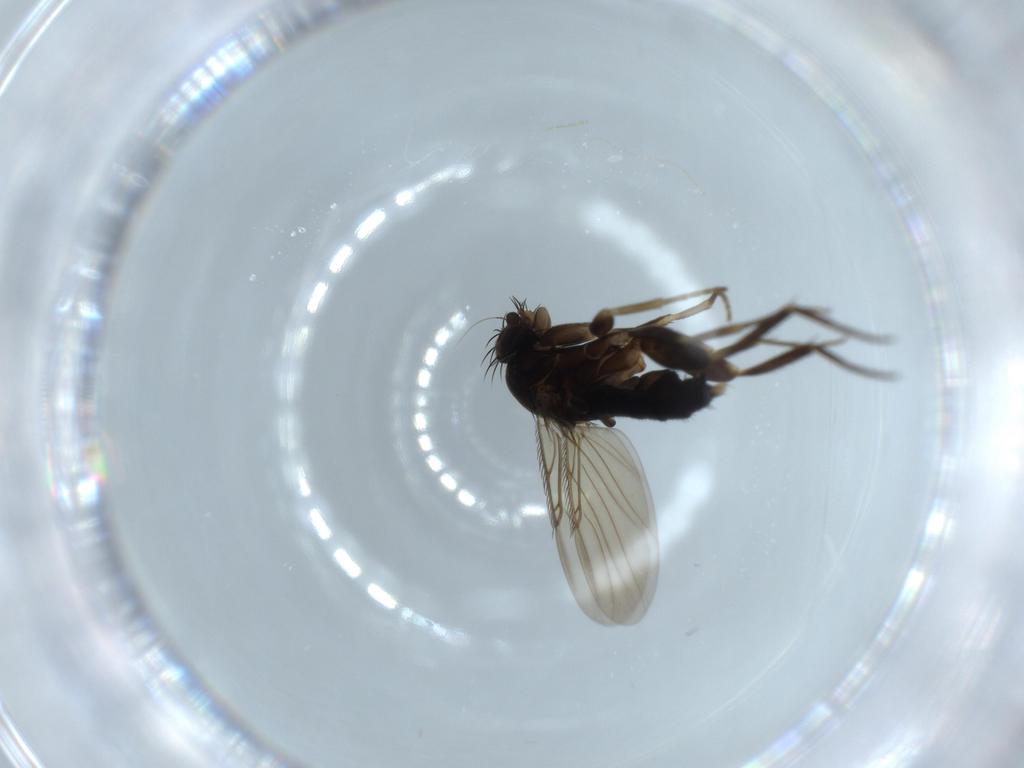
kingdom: Animalia
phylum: Arthropoda
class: Insecta
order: Diptera
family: Phoridae
